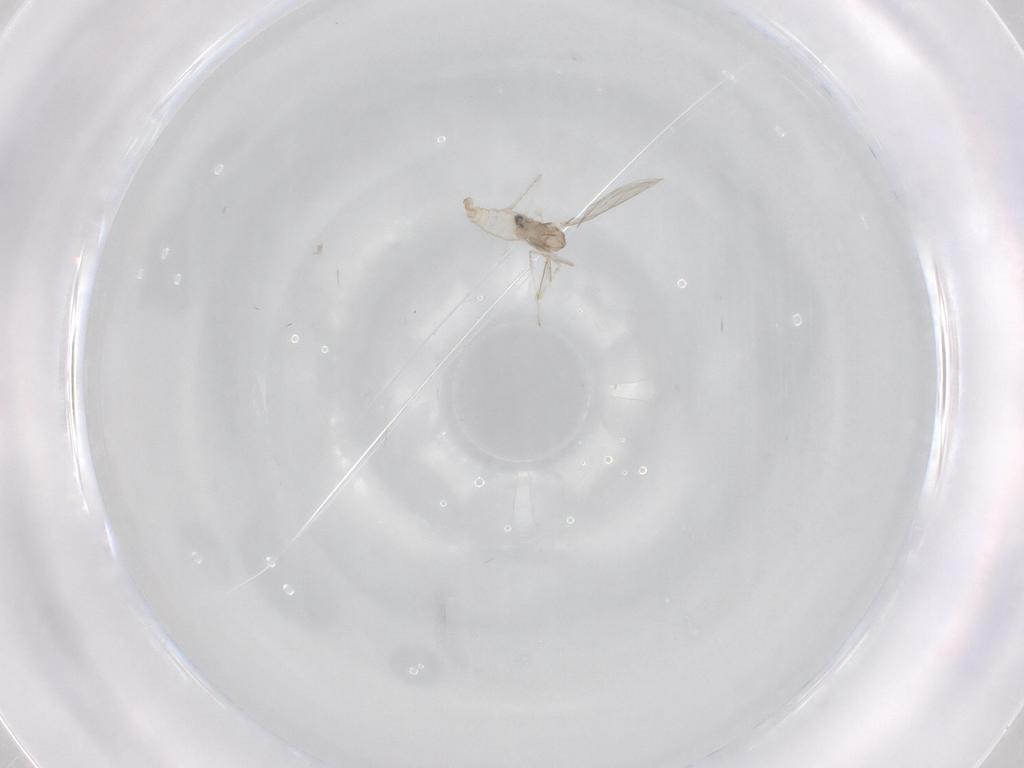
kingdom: Animalia
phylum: Arthropoda
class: Insecta
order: Diptera
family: Cecidomyiidae
